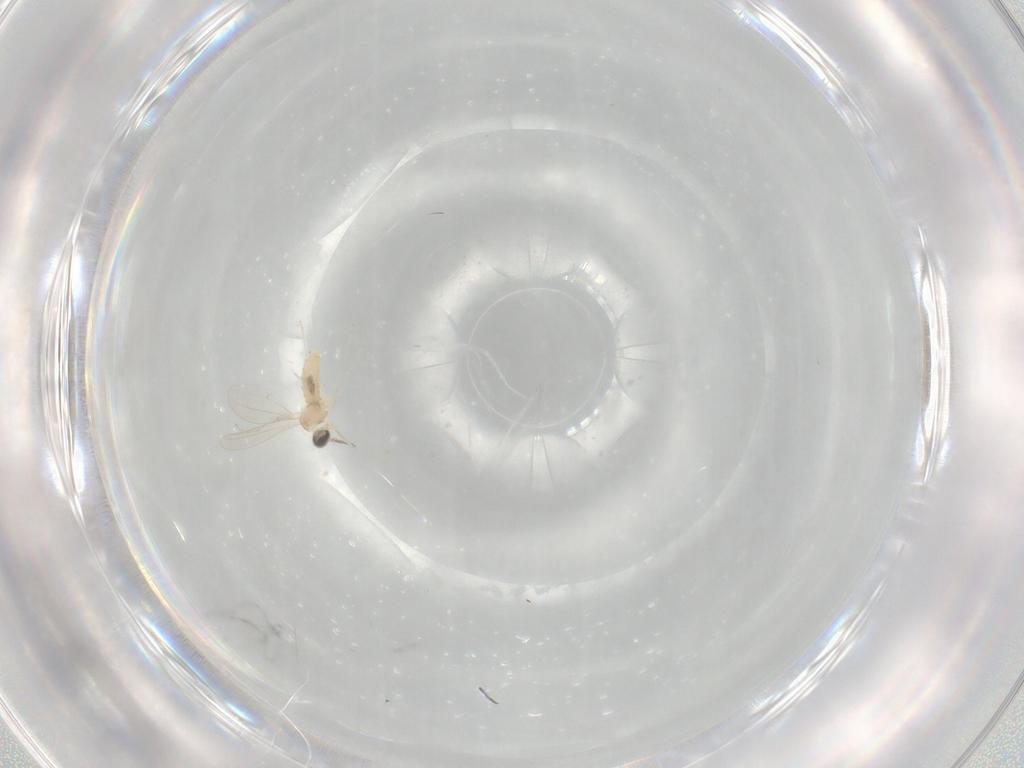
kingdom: Animalia
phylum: Arthropoda
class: Insecta
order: Diptera
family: Cecidomyiidae
